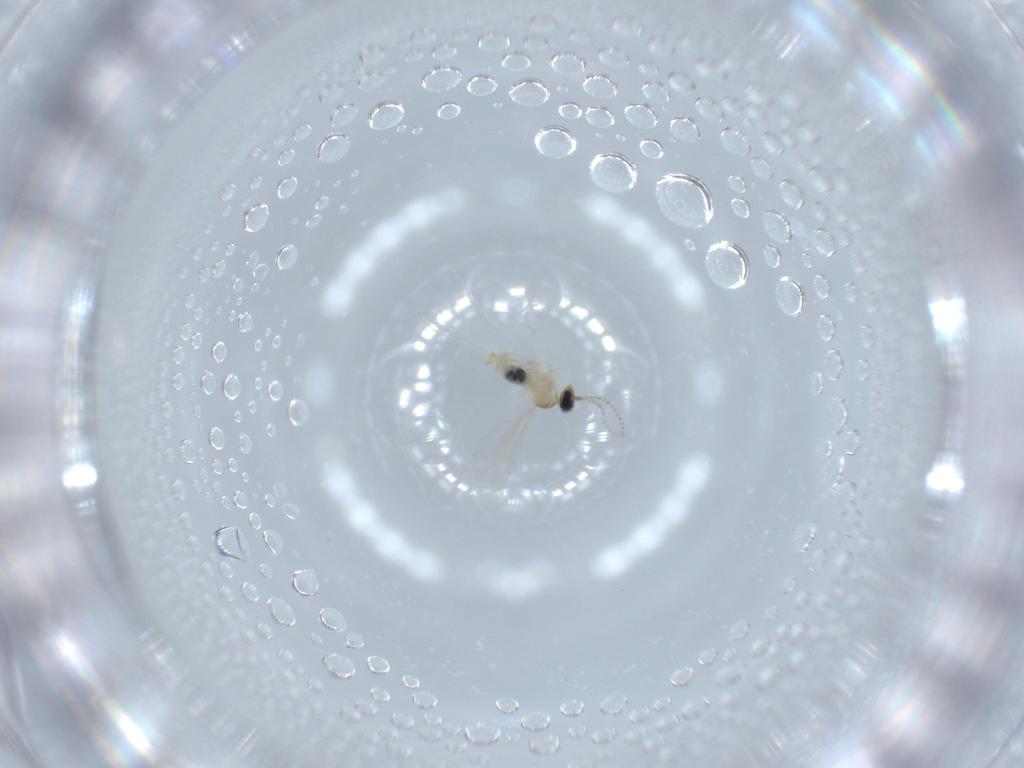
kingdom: Animalia
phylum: Arthropoda
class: Insecta
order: Diptera
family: Cecidomyiidae
